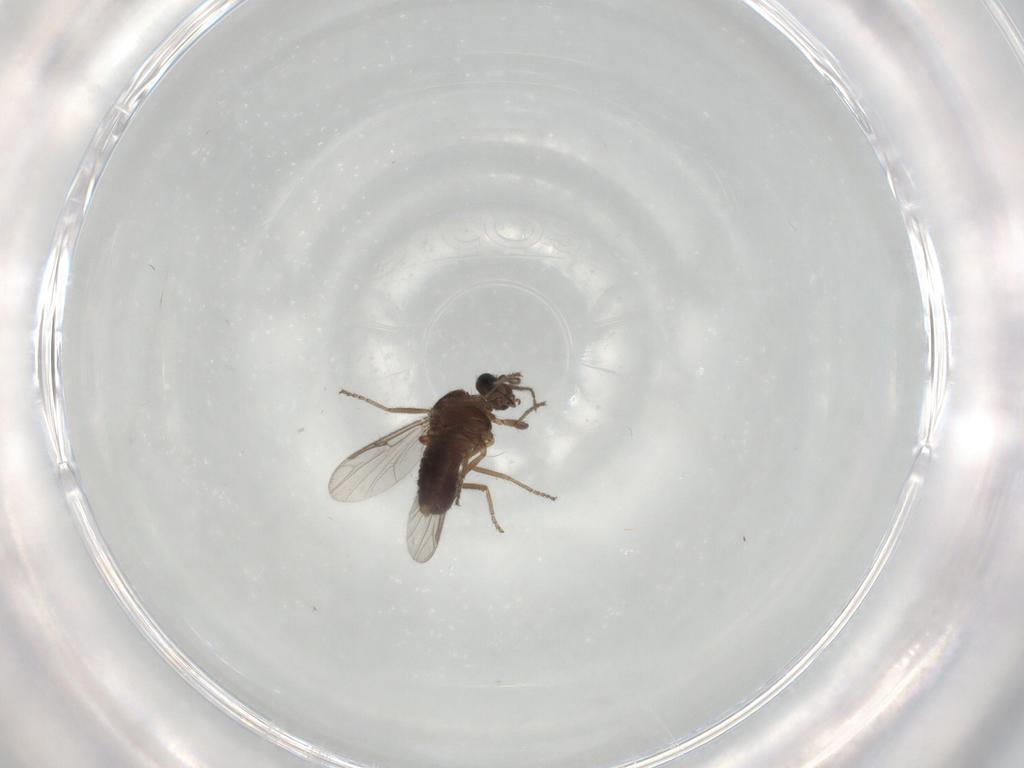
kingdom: Animalia
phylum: Arthropoda
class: Insecta
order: Diptera
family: Ceratopogonidae
